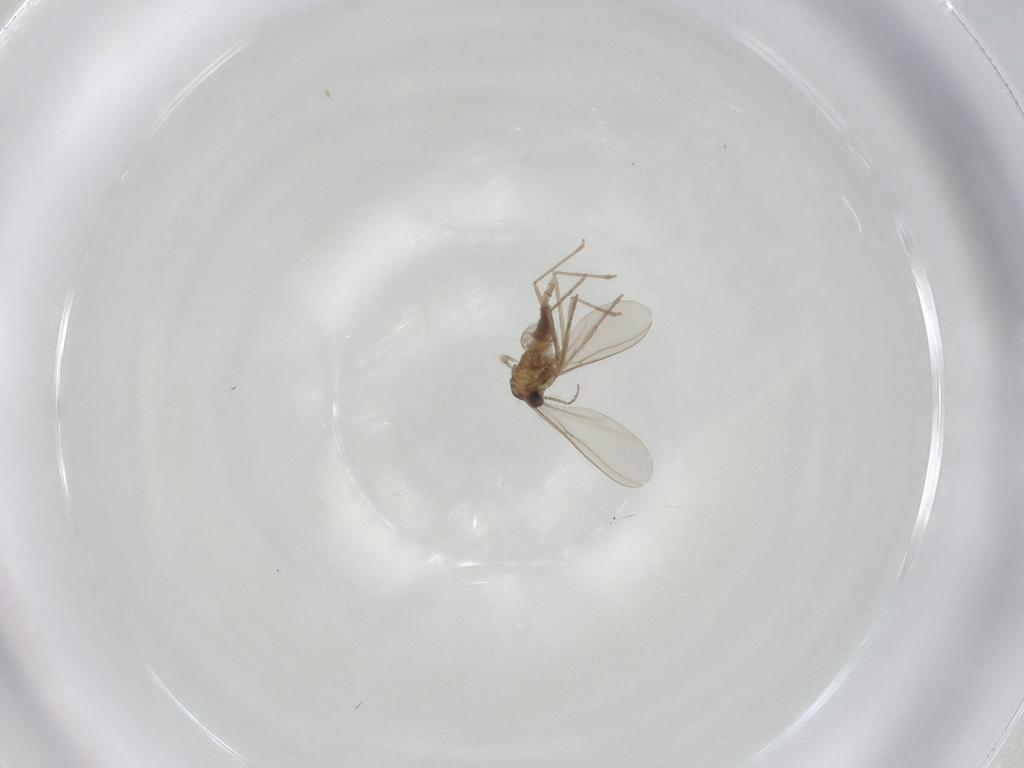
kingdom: Animalia
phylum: Arthropoda
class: Insecta
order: Diptera
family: Cecidomyiidae
